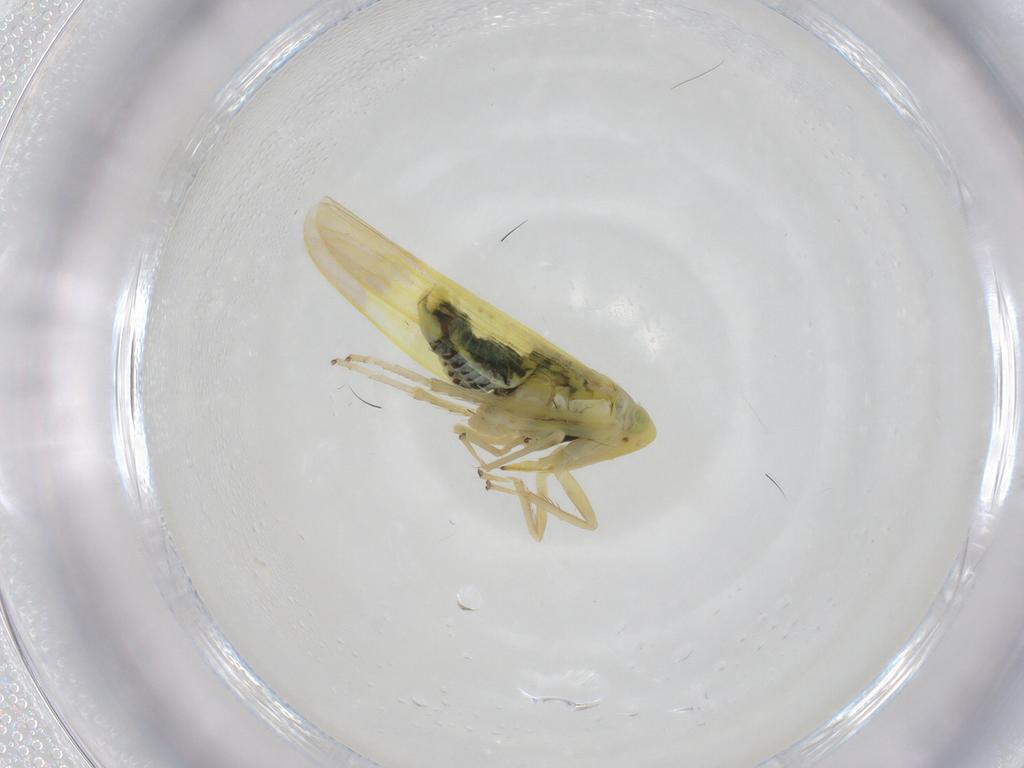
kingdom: Animalia
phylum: Arthropoda
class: Insecta
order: Hemiptera
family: Cicadellidae
